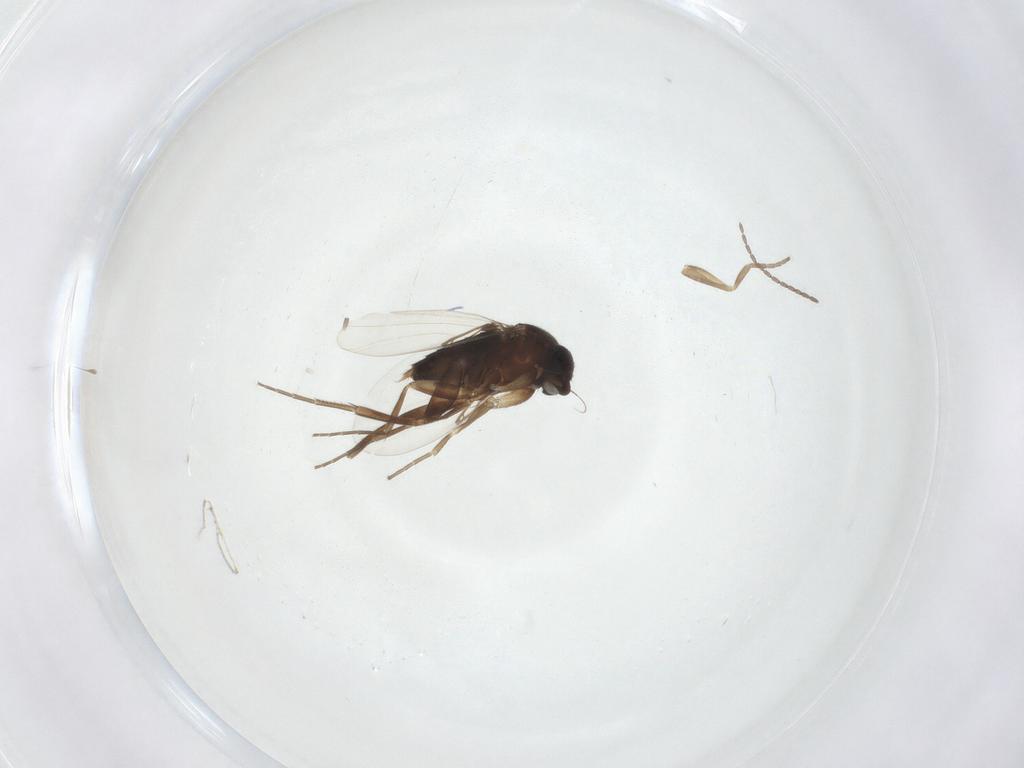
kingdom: Animalia
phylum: Arthropoda
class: Insecta
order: Diptera
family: Phoridae
